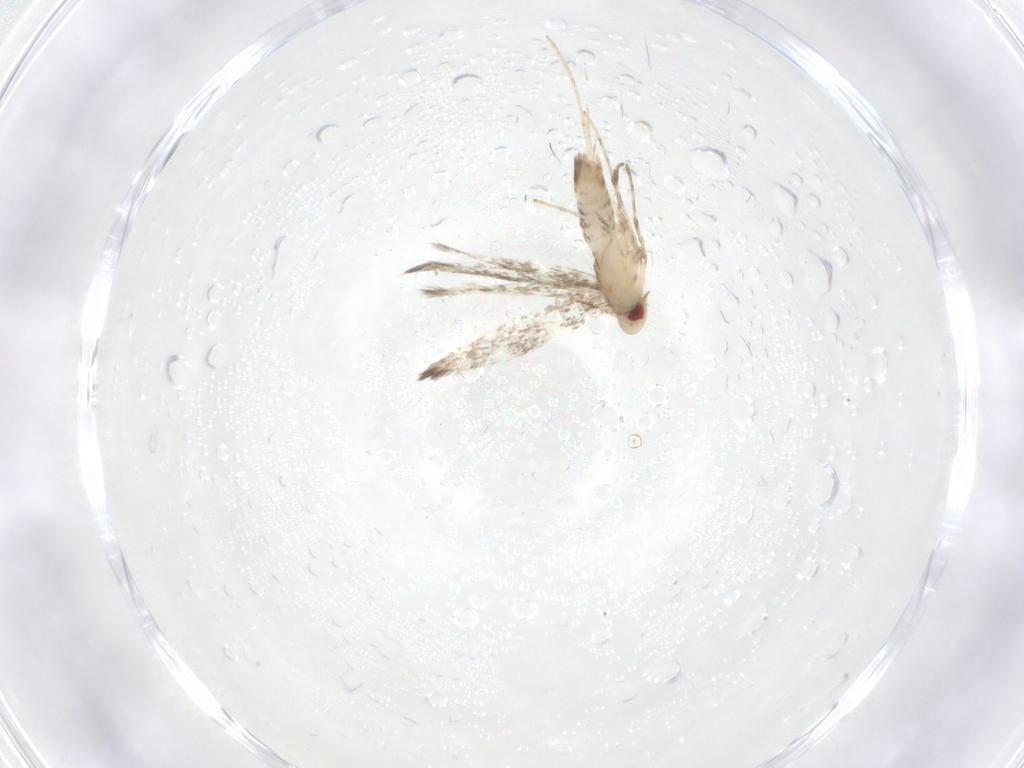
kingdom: Animalia
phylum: Arthropoda
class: Insecta
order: Lepidoptera
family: Gracillariidae
